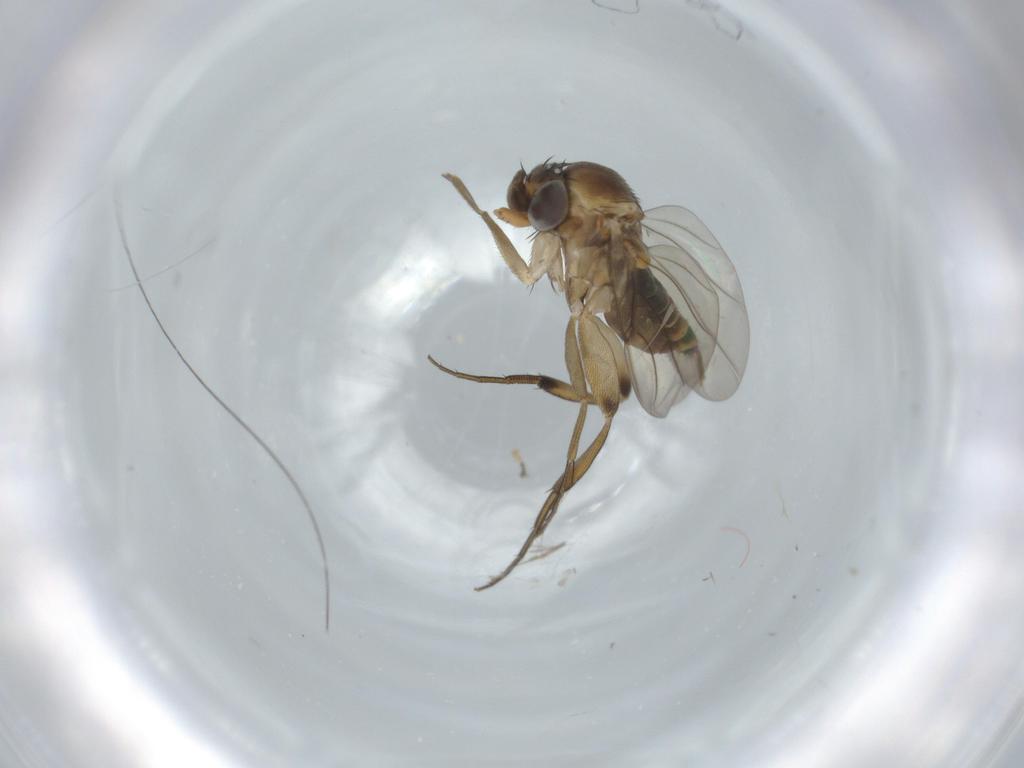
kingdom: Animalia
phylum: Arthropoda
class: Insecta
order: Diptera
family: Phoridae
